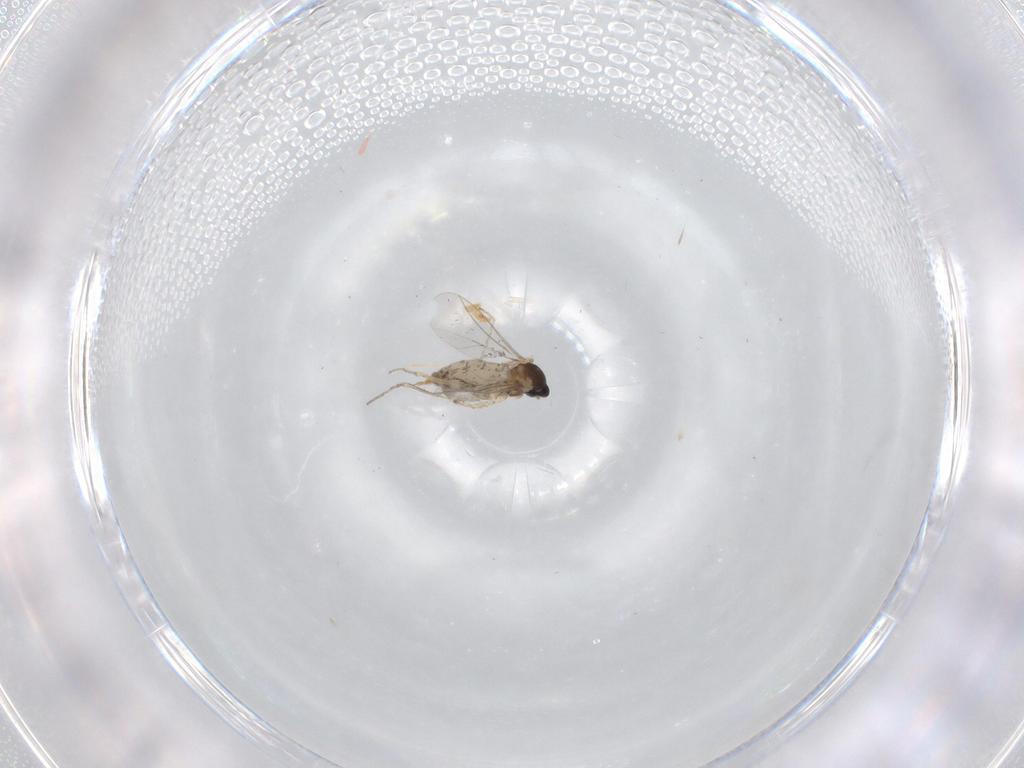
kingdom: Animalia
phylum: Arthropoda
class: Insecta
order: Diptera
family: Cecidomyiidae
